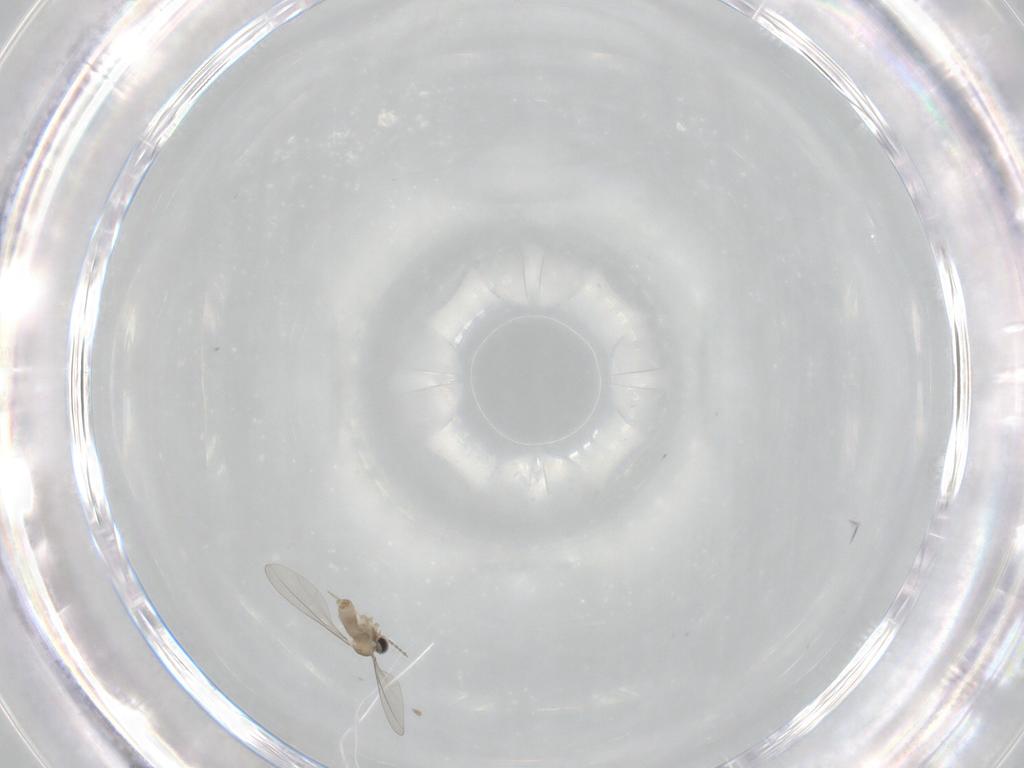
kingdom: Animalia
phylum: Arthropoda
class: Insecta
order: Diptera
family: Cecidomyiidae
